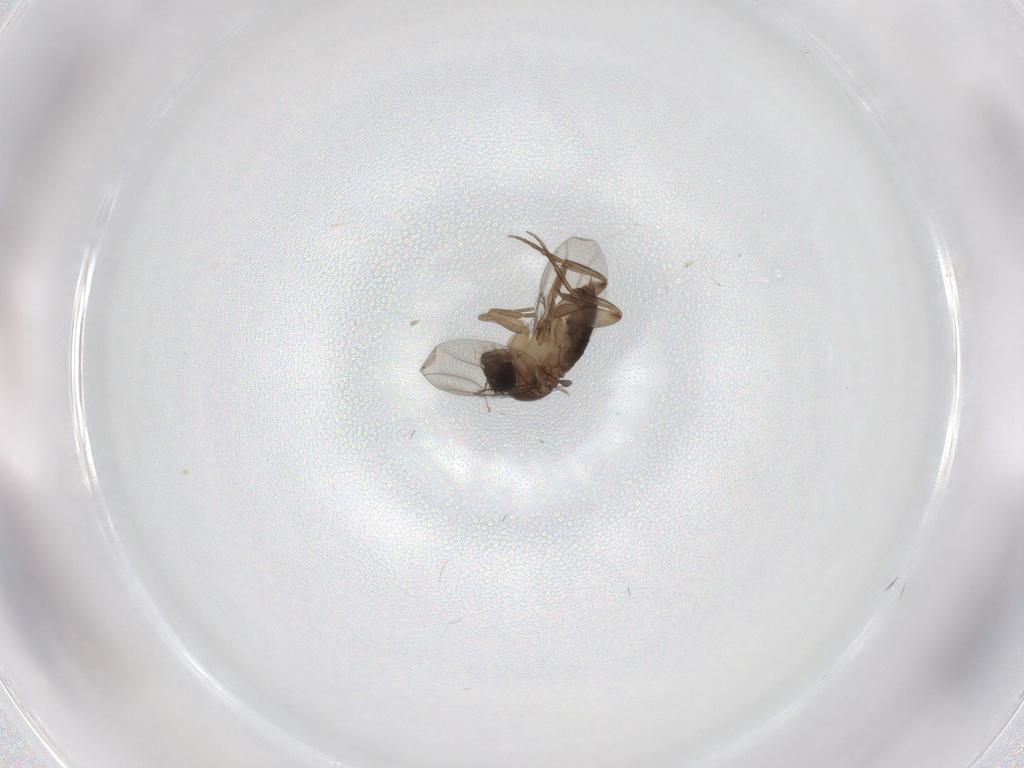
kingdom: Animalia
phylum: Arthropoda
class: Insecta
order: Diptera
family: Phoridae
